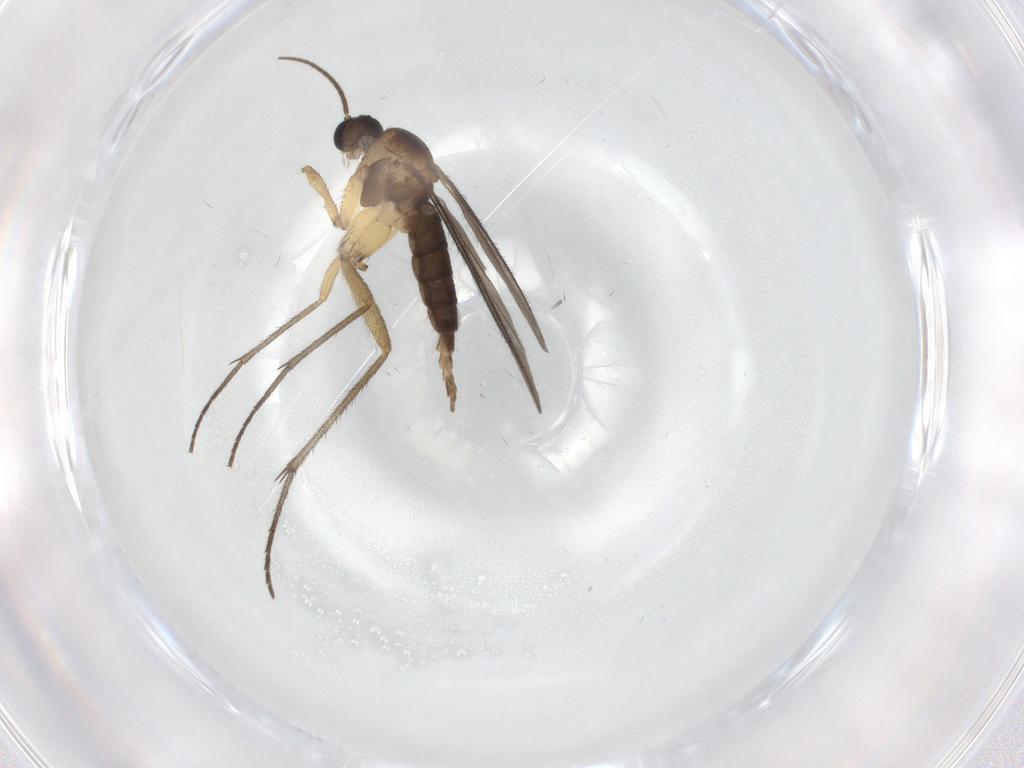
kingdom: Animalia
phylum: Arthropoda
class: Insecta
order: Diptera
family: Sciaridae
